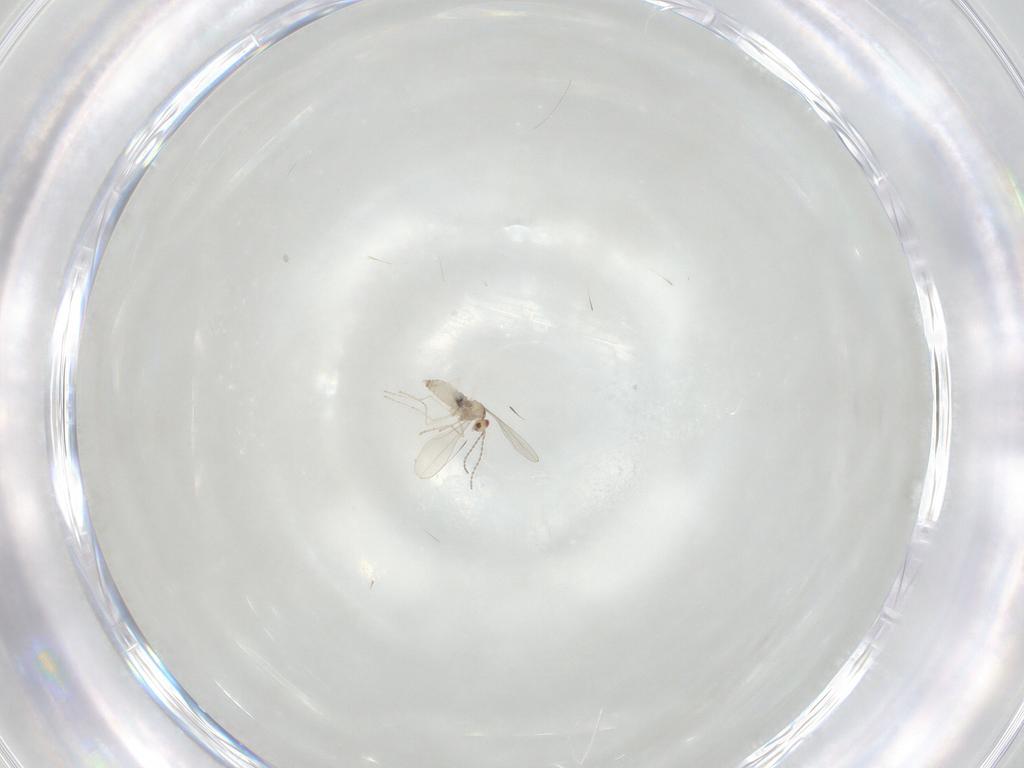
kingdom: Animalia
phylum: Arthropoda
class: Insecta
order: Diptera
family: Cecidomyiidae
